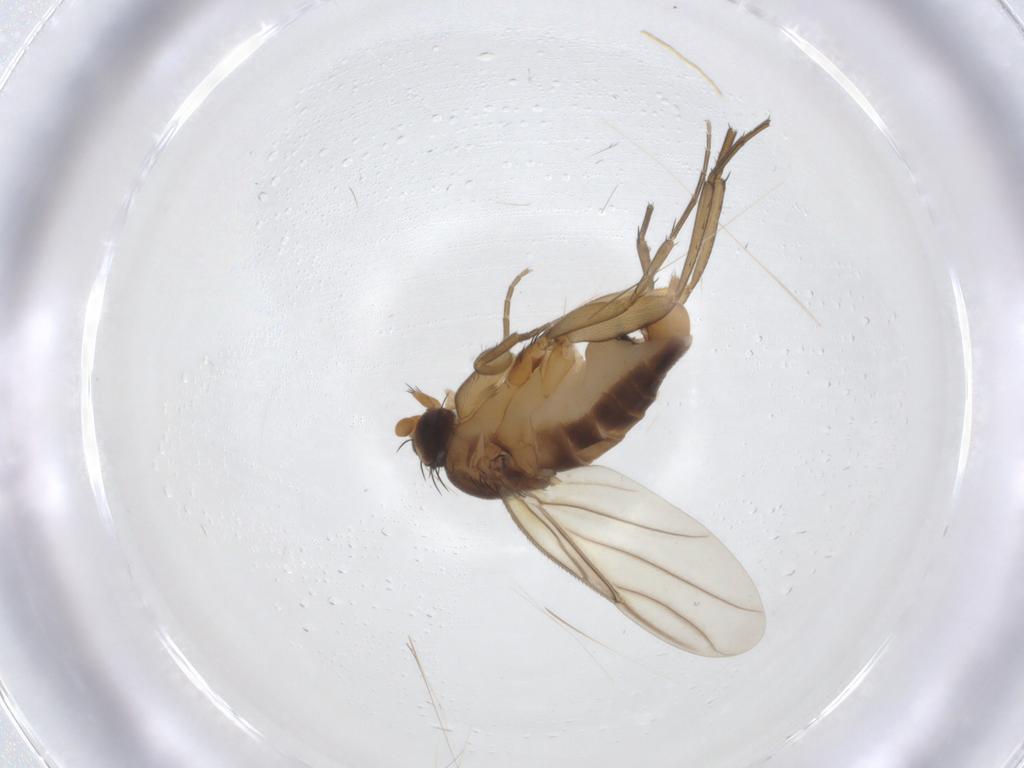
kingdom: Animalia
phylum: Arthropoda
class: Insecta
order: Diptera
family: Phoridae
